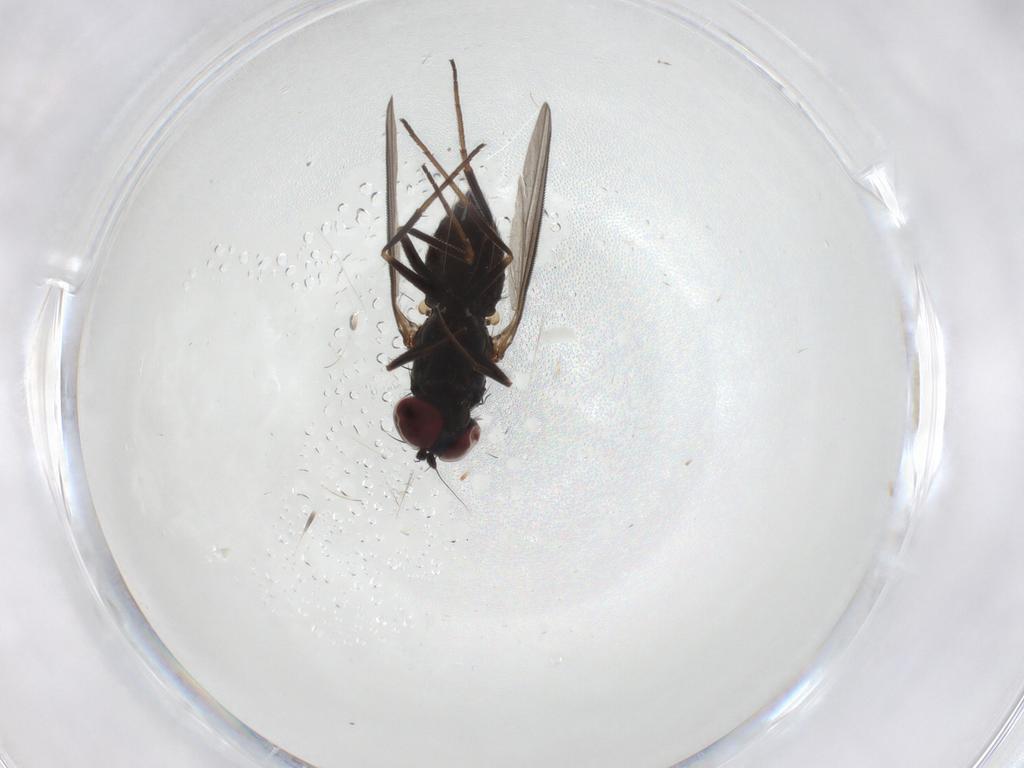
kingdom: Animalia
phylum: Arthropoda
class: Insecta
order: Diptera
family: Dolichopodidae
